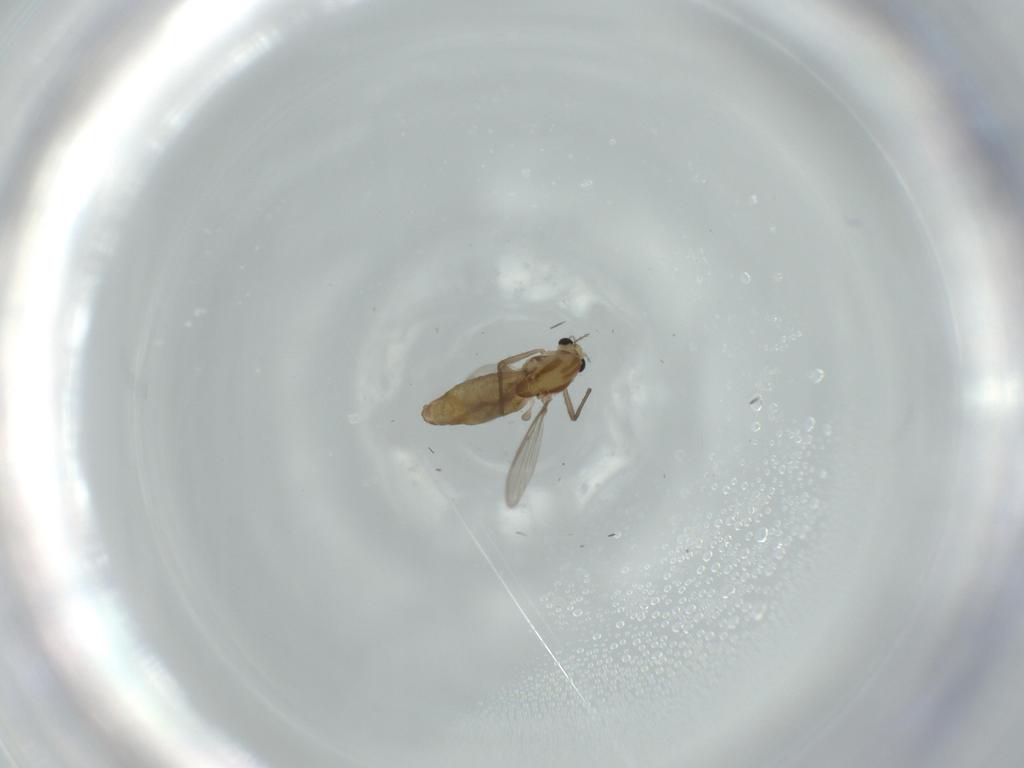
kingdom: Animalia
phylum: Arthropoda
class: Insecta
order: Diptera
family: Chironomidae
